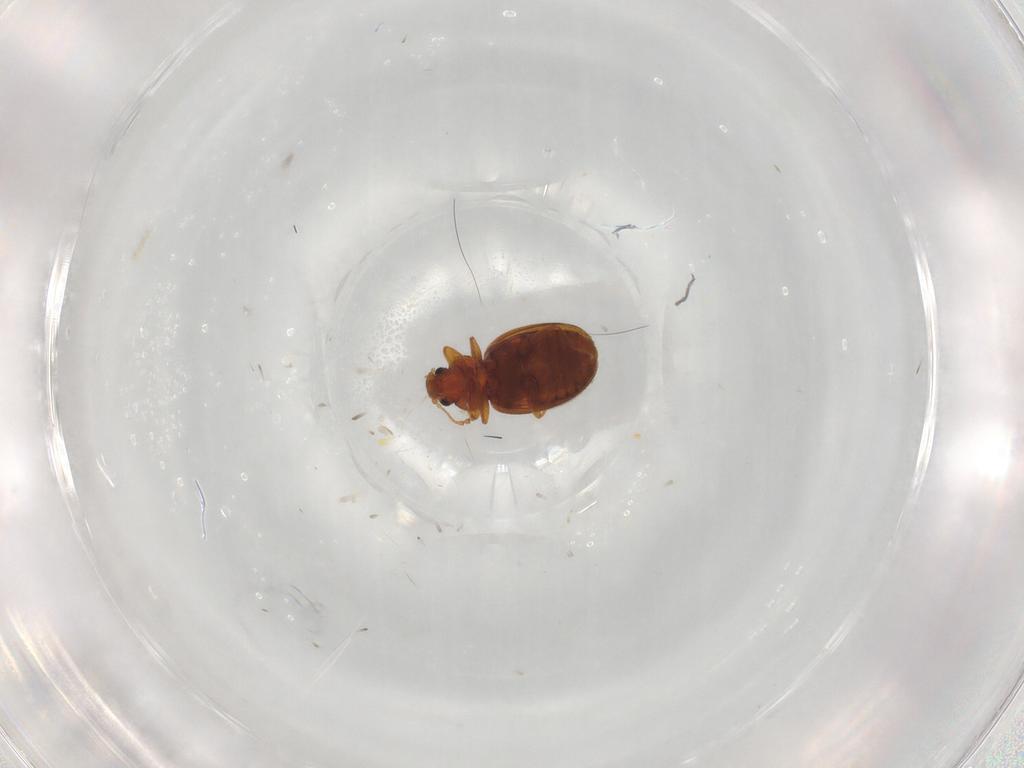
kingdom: Animalia
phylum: Arthropoda
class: Insecta
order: Coleoptera
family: Latridiidae
